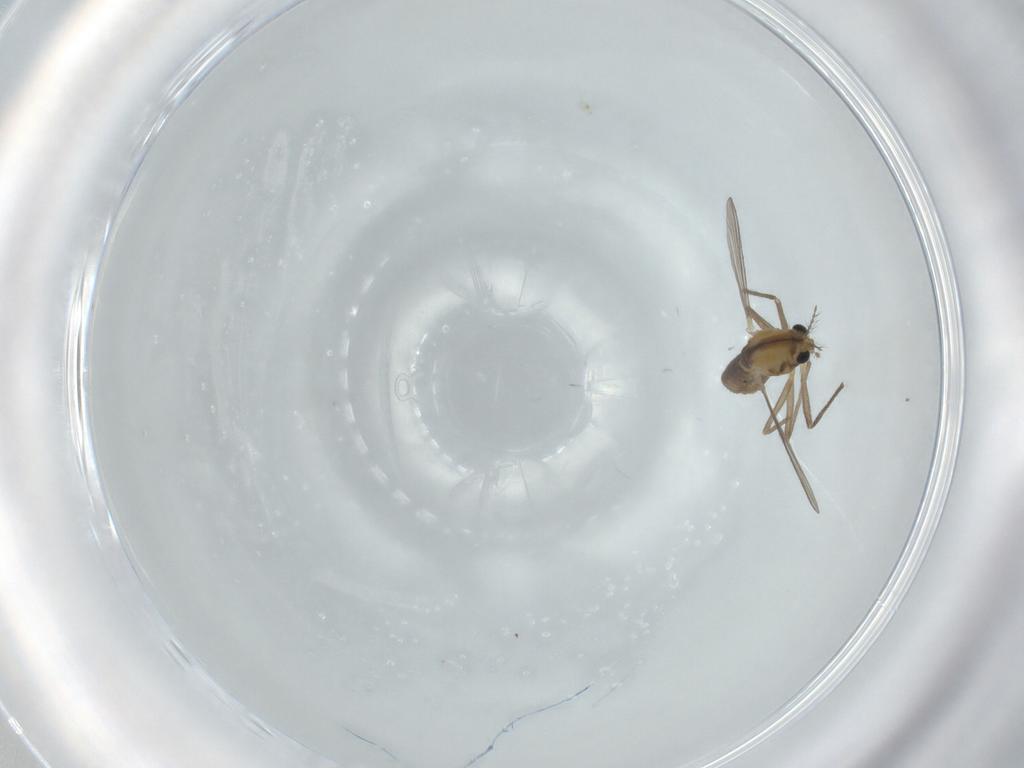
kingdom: Animalia
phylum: Arthropoda
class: Insecta
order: Diptera
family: Chironomidae
